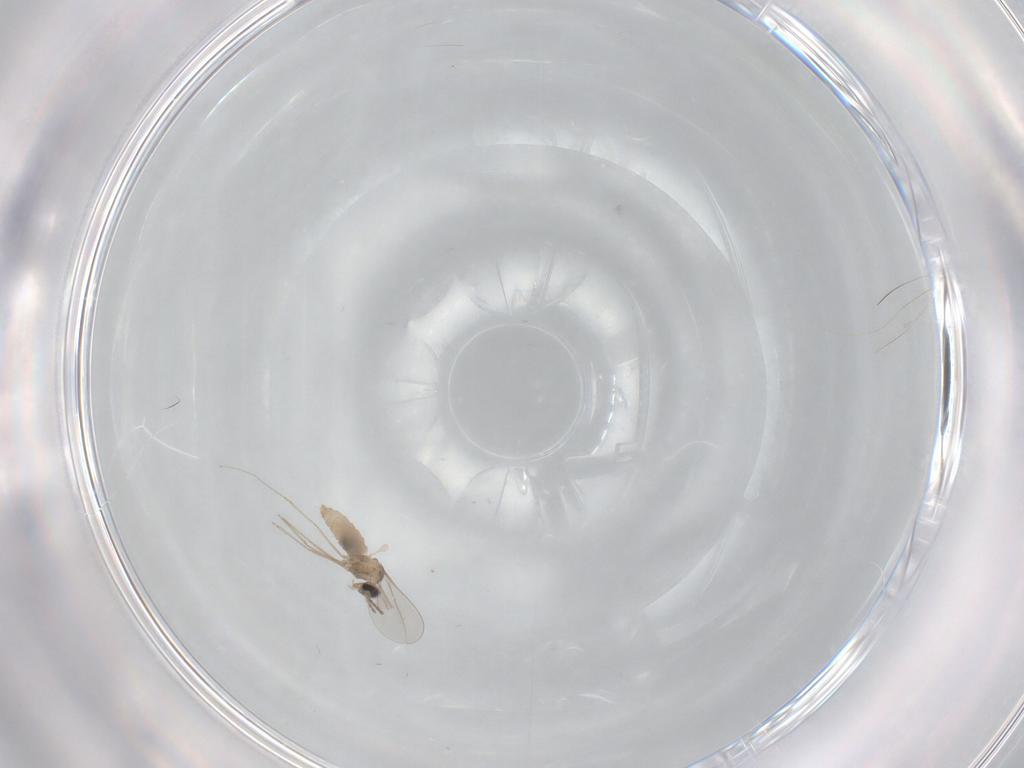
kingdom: Animalia
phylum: Arthropoda
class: Insecta
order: Diptera
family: Cecidomyiidae
